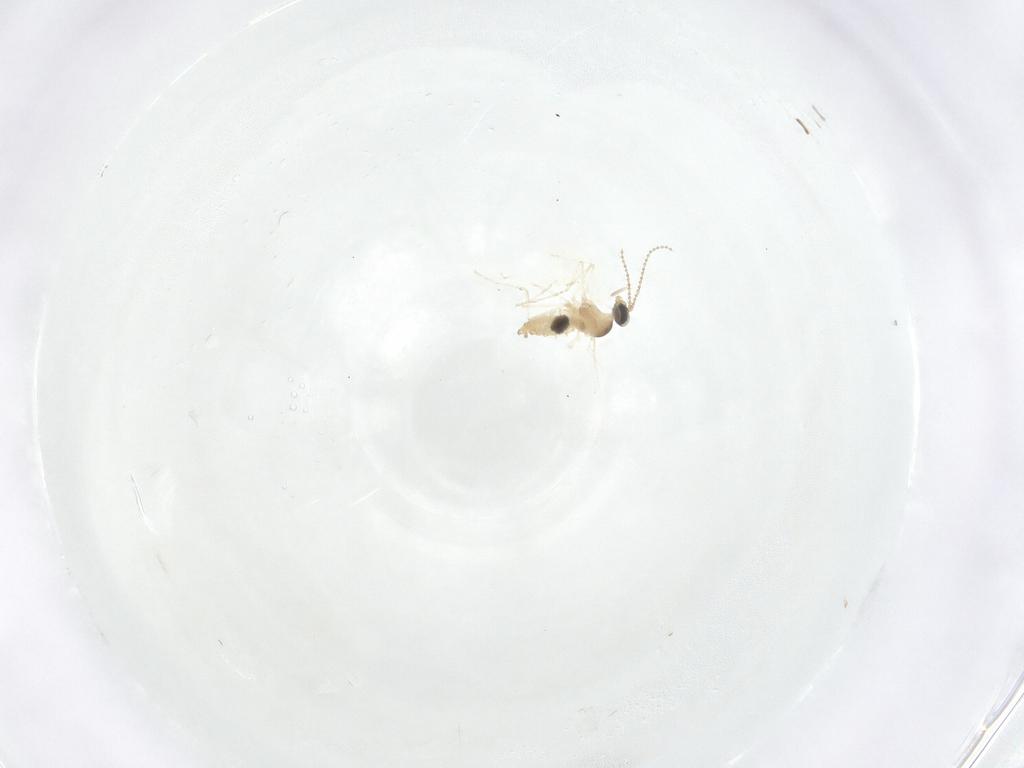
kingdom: Animalia
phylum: Arthropoda
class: Insecta
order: Diptera
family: Cecidomyiidae
